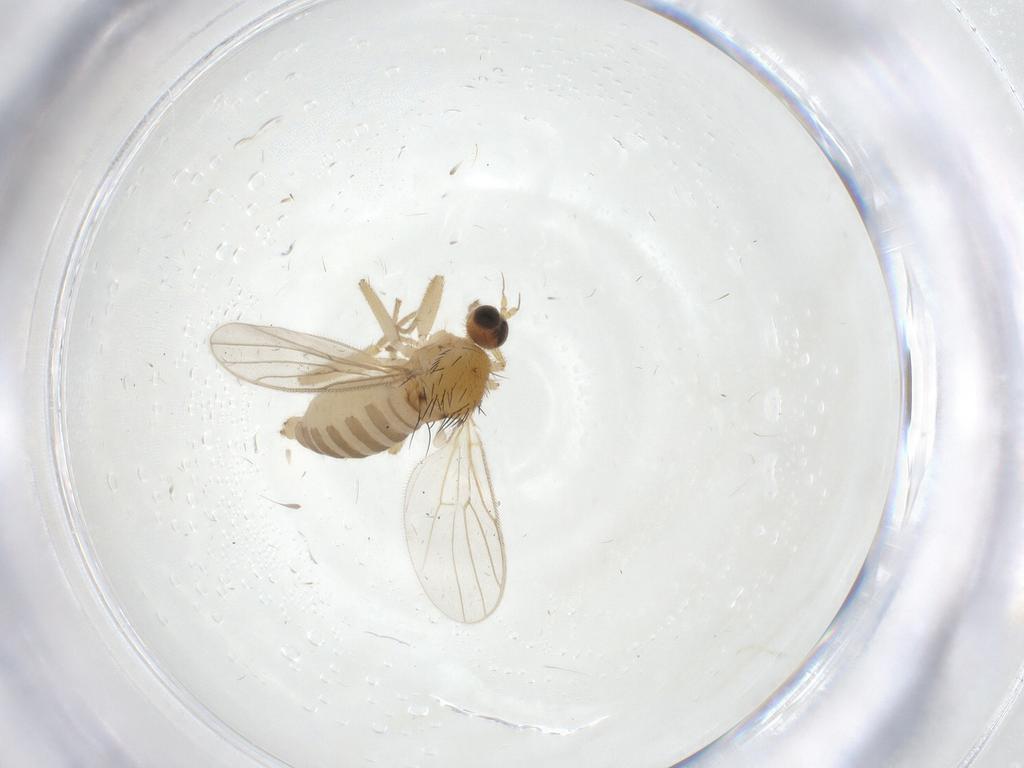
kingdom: Animalia
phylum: Arthropoda
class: Insecta
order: Diptera
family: Hybotidae
